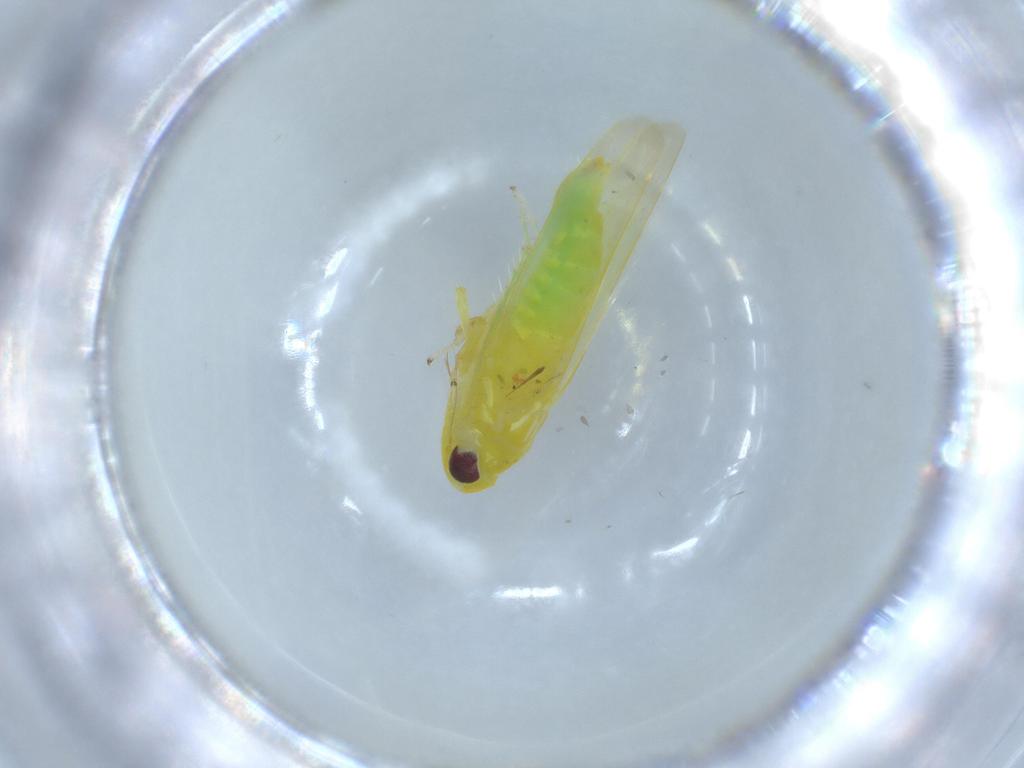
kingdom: Animalia
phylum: Arthropoda
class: Insecta
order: Hemiptera
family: Cicadellidae
